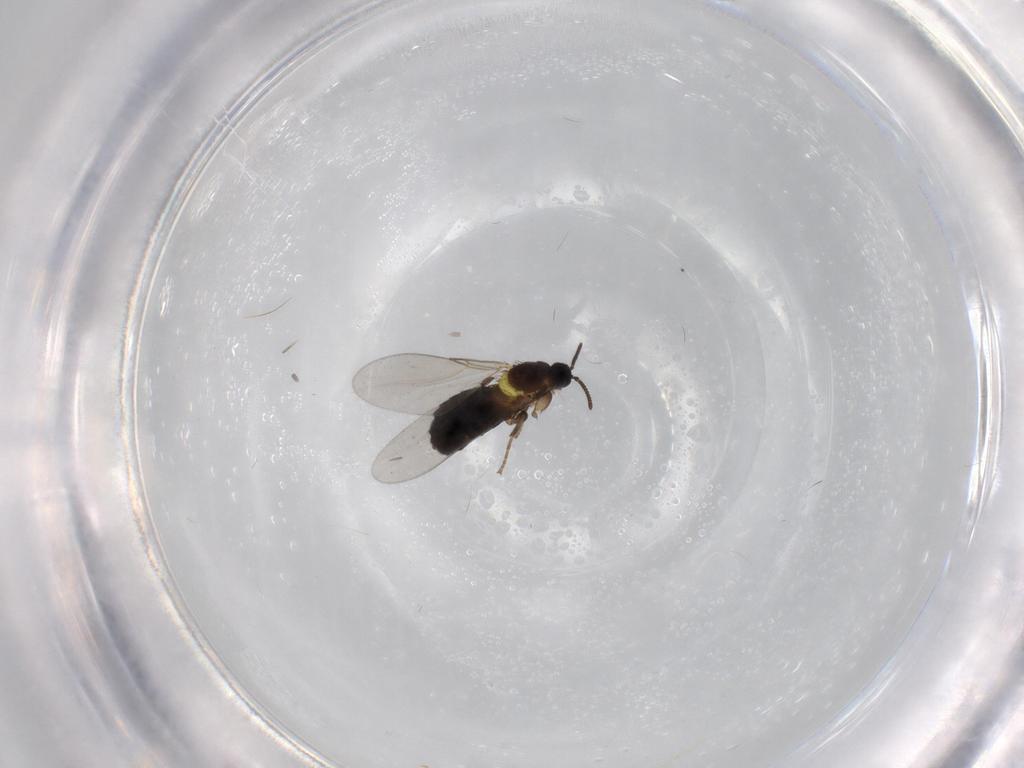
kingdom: Animalia
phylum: Arthropoda
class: Insecta
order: Diptera
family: Scatopsidae
